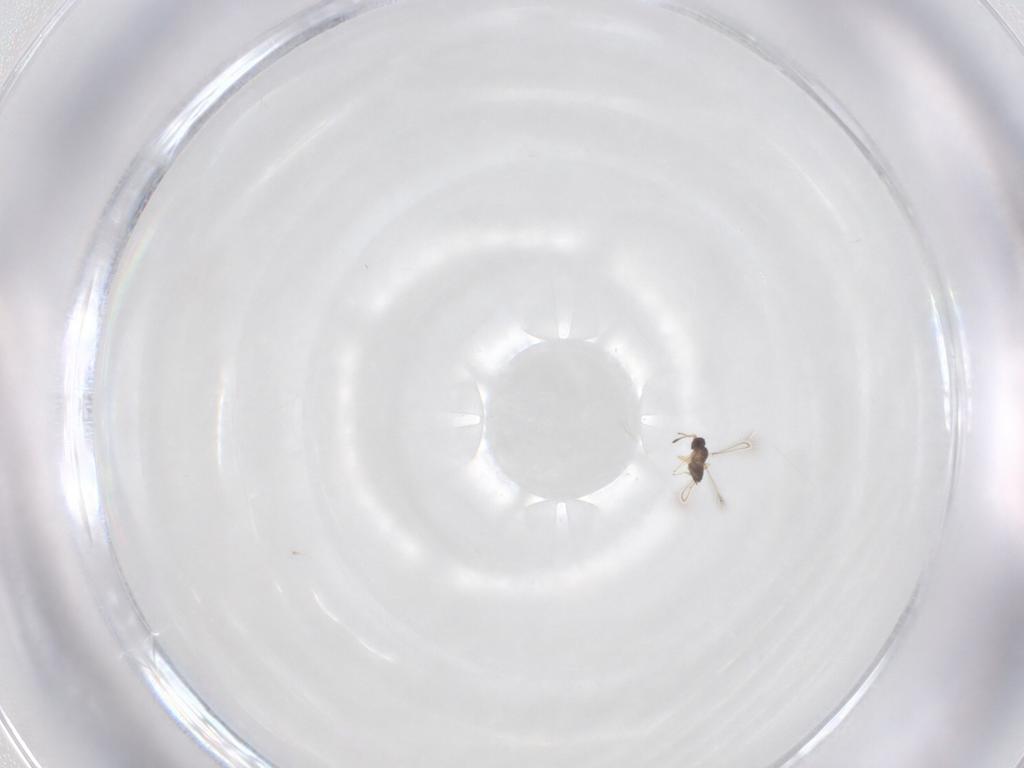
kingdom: Animalia
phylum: Arthropoda
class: Insecta
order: Hymenoptera
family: Mymaridae
